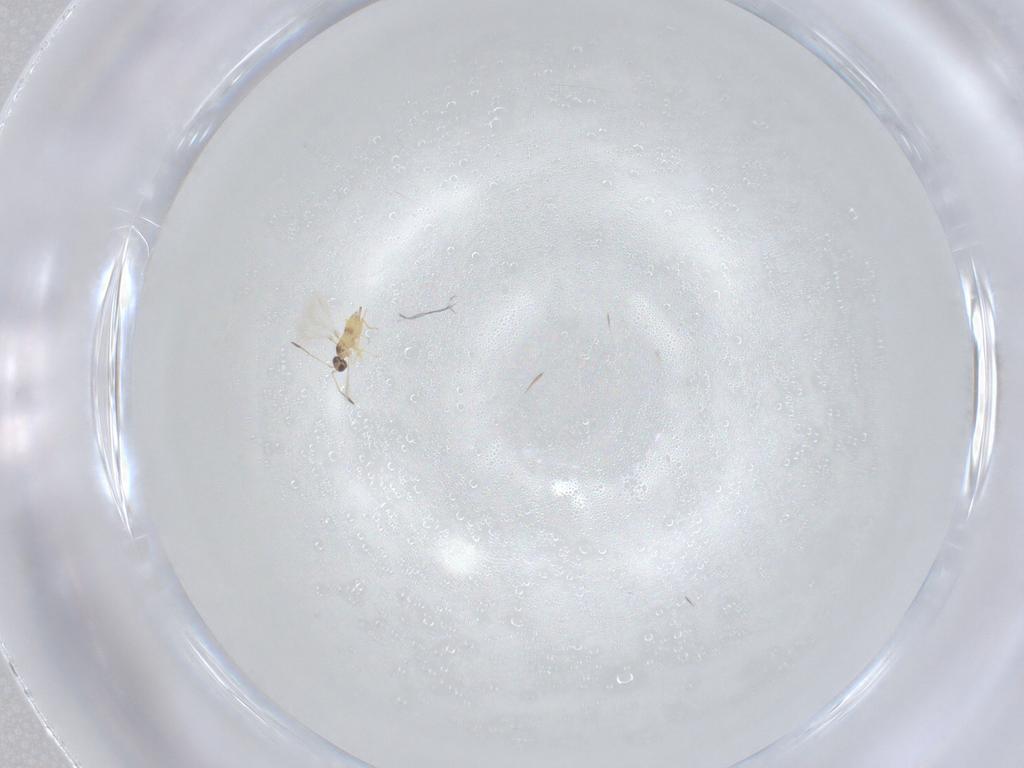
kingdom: Animalia
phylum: Arthropoda
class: Insecta
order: Hymenoptera
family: Mymaridae
